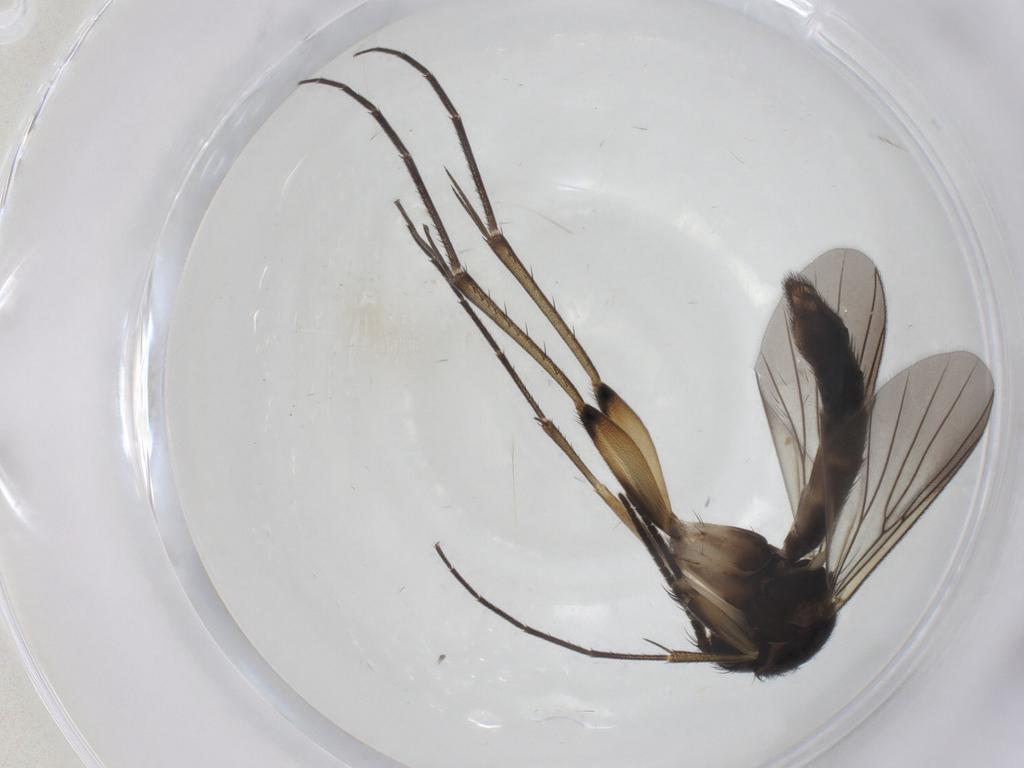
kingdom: Animalia
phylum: Arthropoda
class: Insecta
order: Diptera
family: Mycetophilidae
